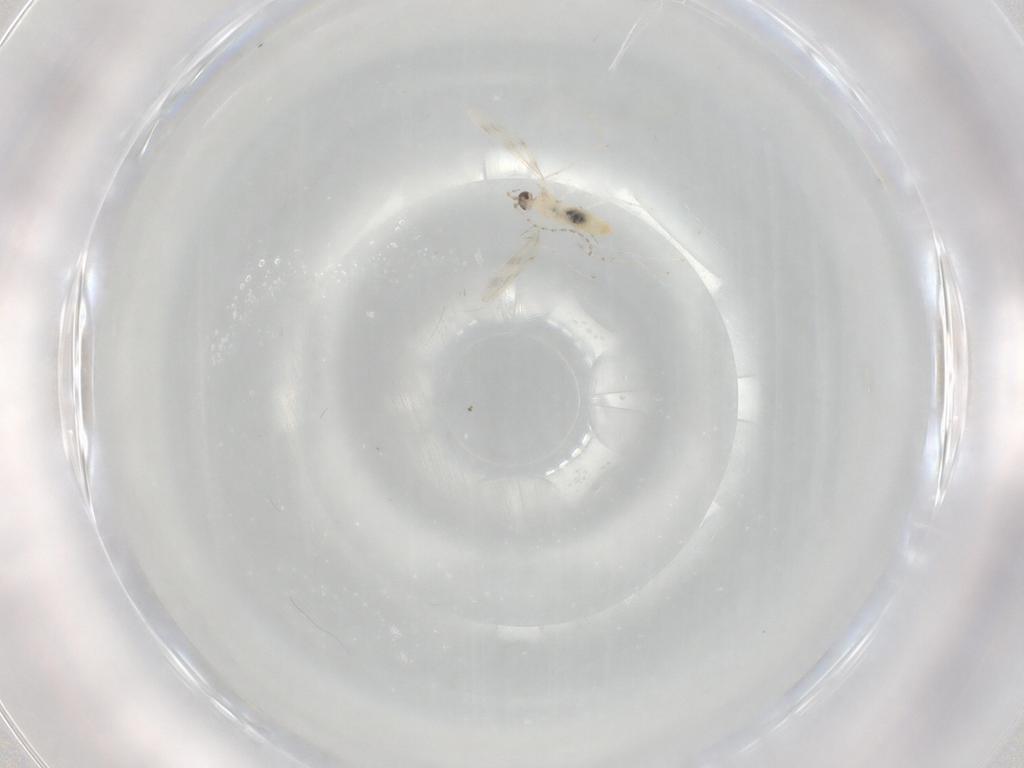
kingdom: Animalia
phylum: Arthropoda
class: Insecta
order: Diptera
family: Cecidomyiidae
